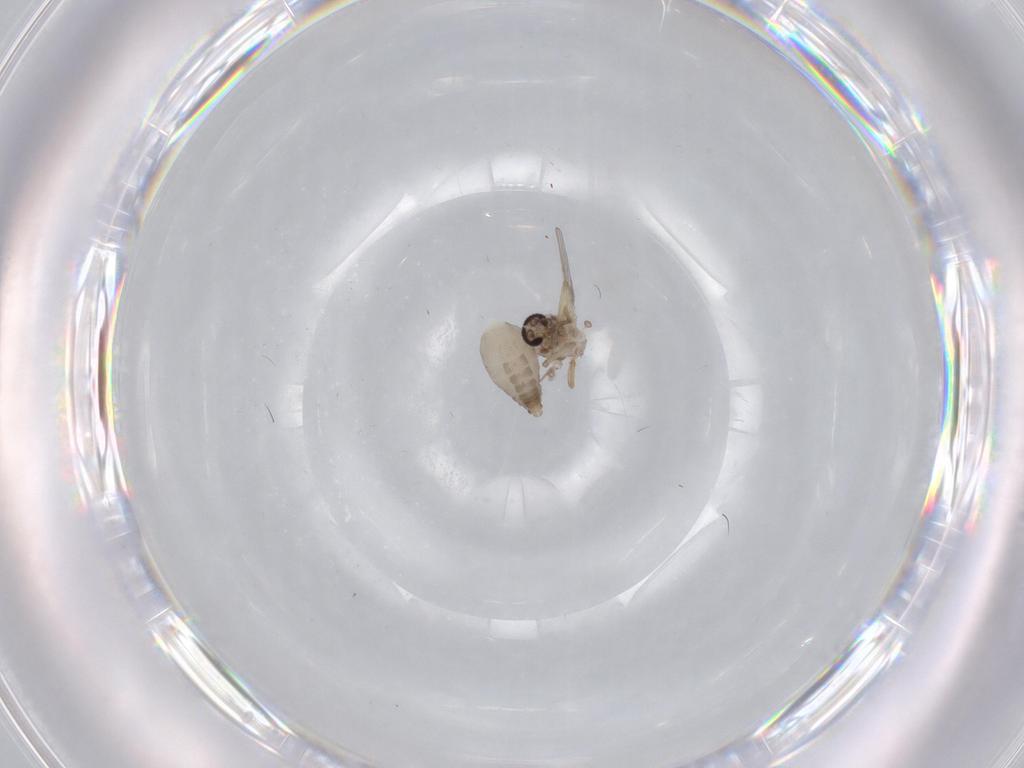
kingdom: Animalia
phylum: Arthropoda
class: Insecta
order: Diptera
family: Ceratopogonidae
